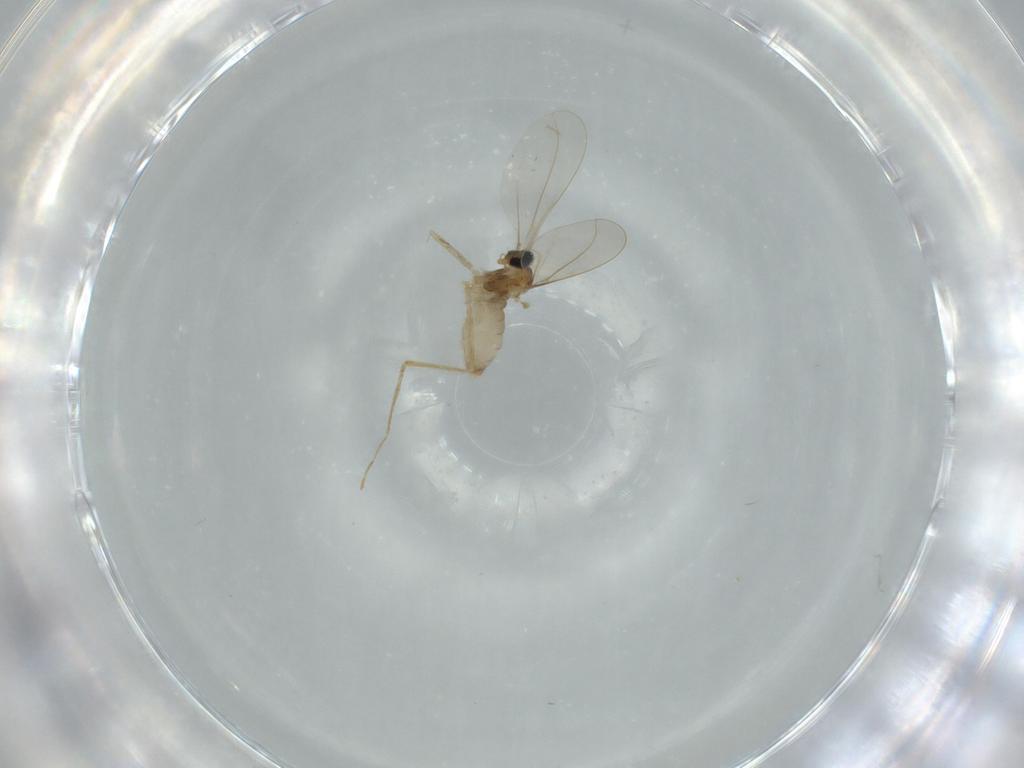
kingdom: Animalia
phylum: Arthropoda
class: Insecta
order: Diptera
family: Cecidomyiidae
